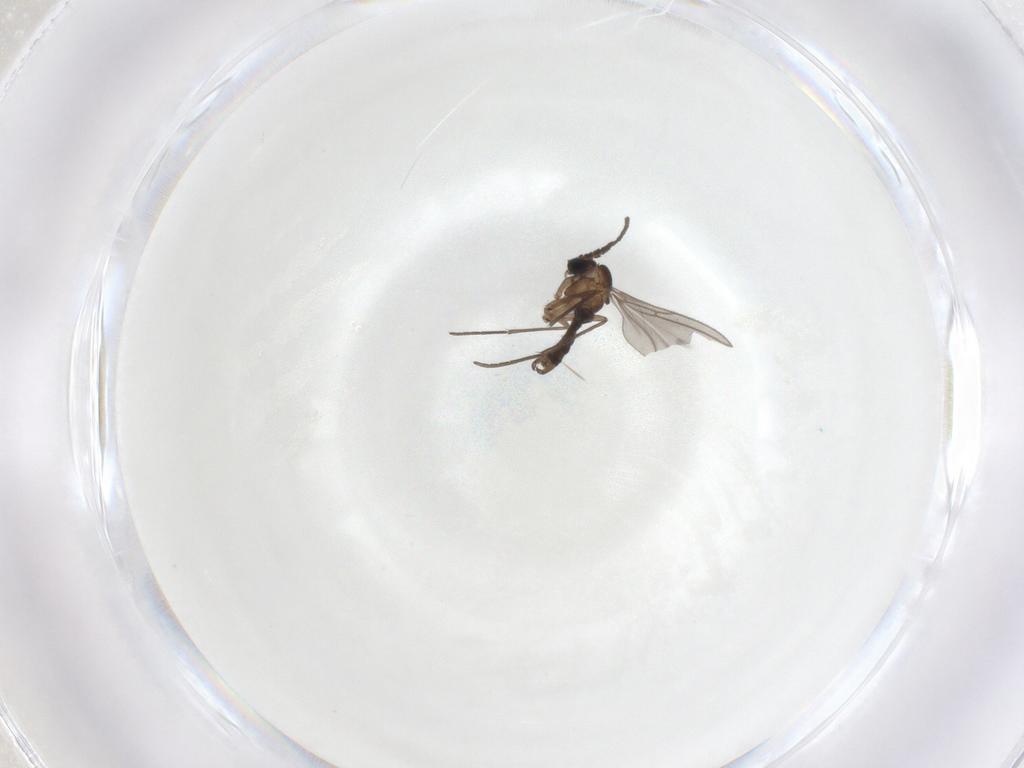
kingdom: Animalia
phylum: Arthropoda
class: Insecta
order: Diptera
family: Sciaridae
